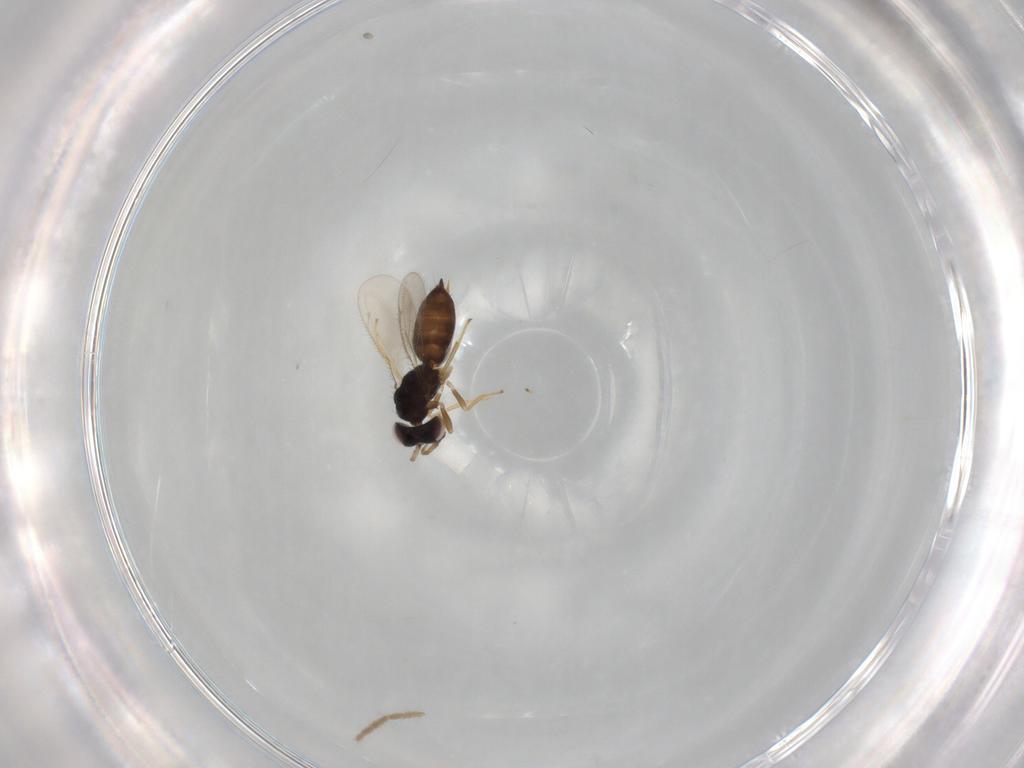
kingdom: Animalia
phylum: Arthropoda
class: Insecta
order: Hymenoptera
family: Eulophidae
